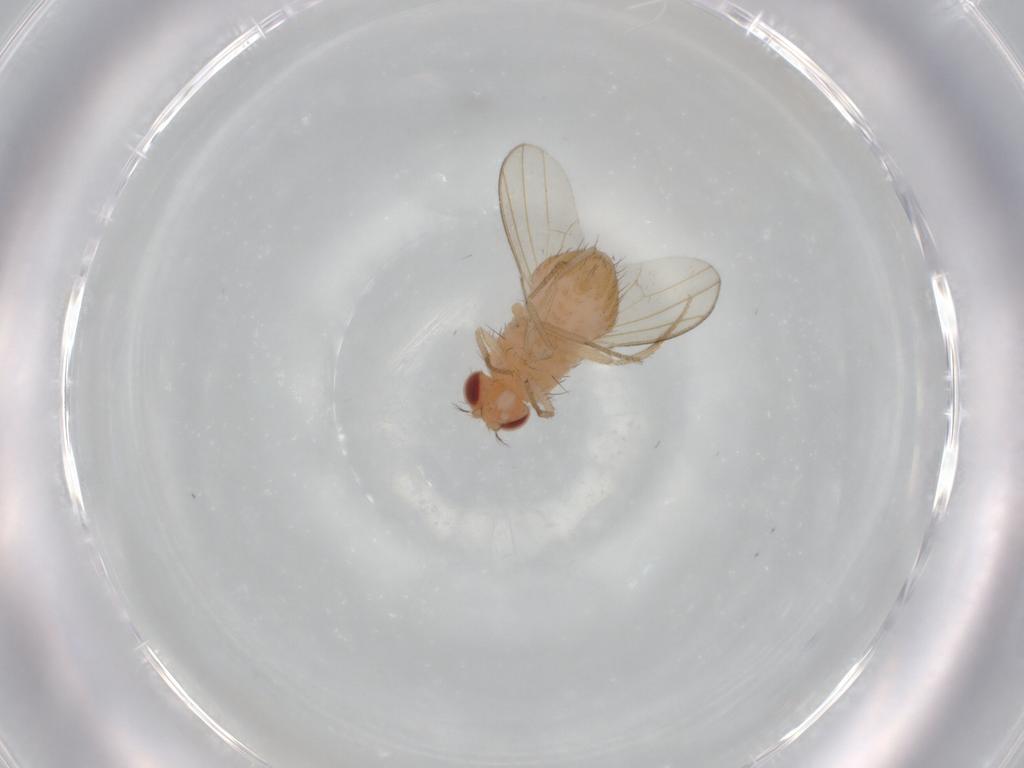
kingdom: Animalia
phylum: Arthropoda
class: Insecta
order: Diptera
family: Drosophilidae
